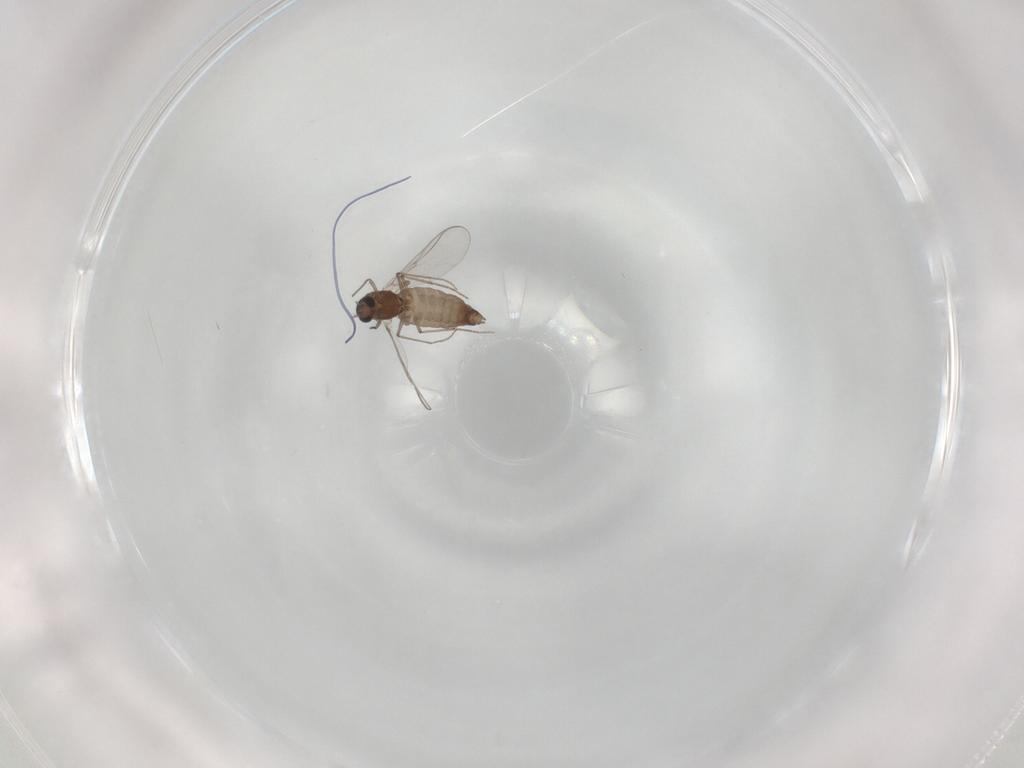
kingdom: Animalia
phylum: Arthropoda
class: Insecta
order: Diptera
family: Chironomidae
